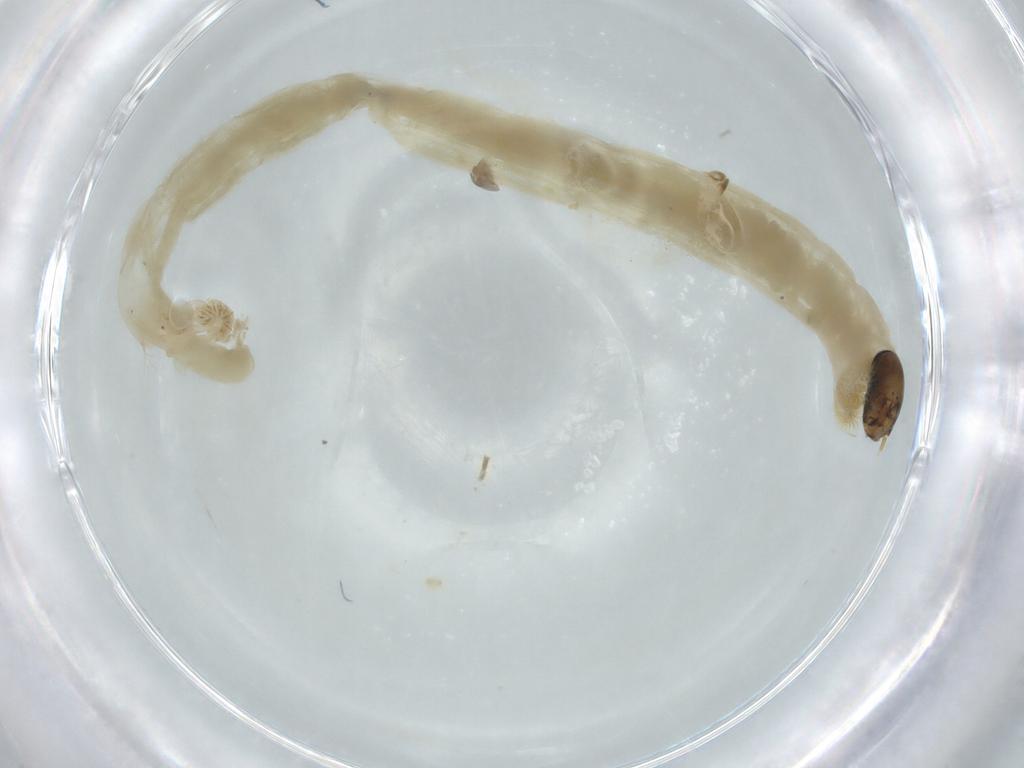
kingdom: Animalia
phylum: Arthropoda
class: Insecta
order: Diptera
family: Chironomidae
